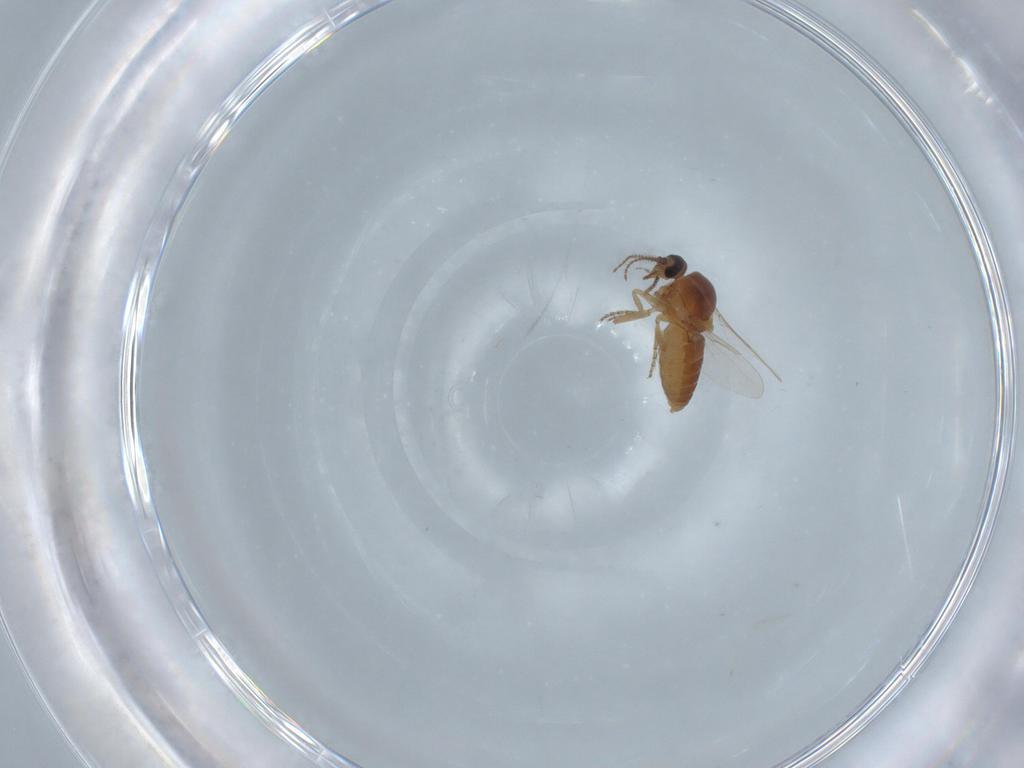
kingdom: Animalia
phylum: Arthropoda
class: Insecta
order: Diptera
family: Ceratopogonidae
